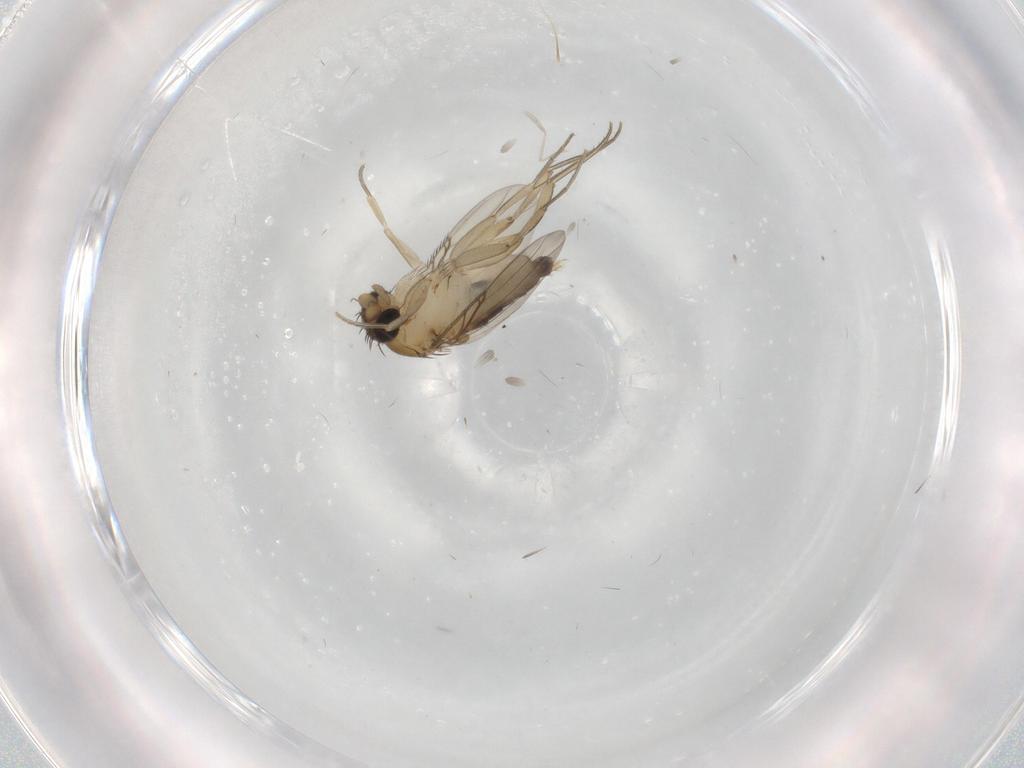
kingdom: Animalia
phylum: Arthropoda
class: Insecta
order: Diptera
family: Phoridae
